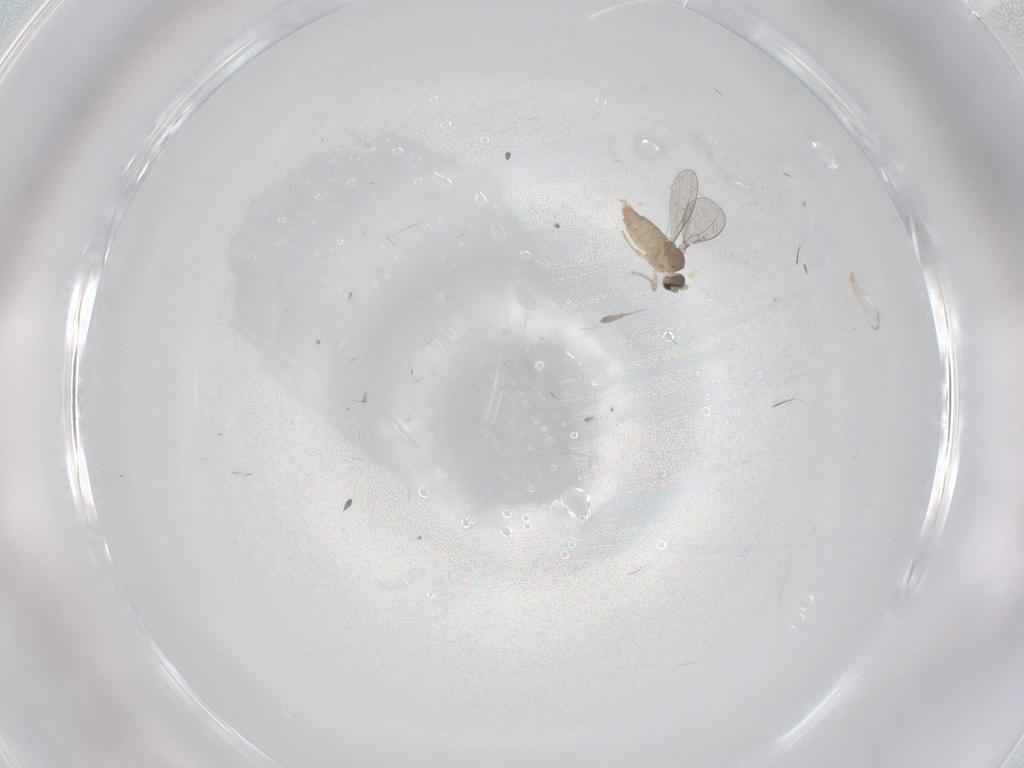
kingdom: Animalia
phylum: Arthropoda
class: Insecta
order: Diptera
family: Cecidomyiidae
